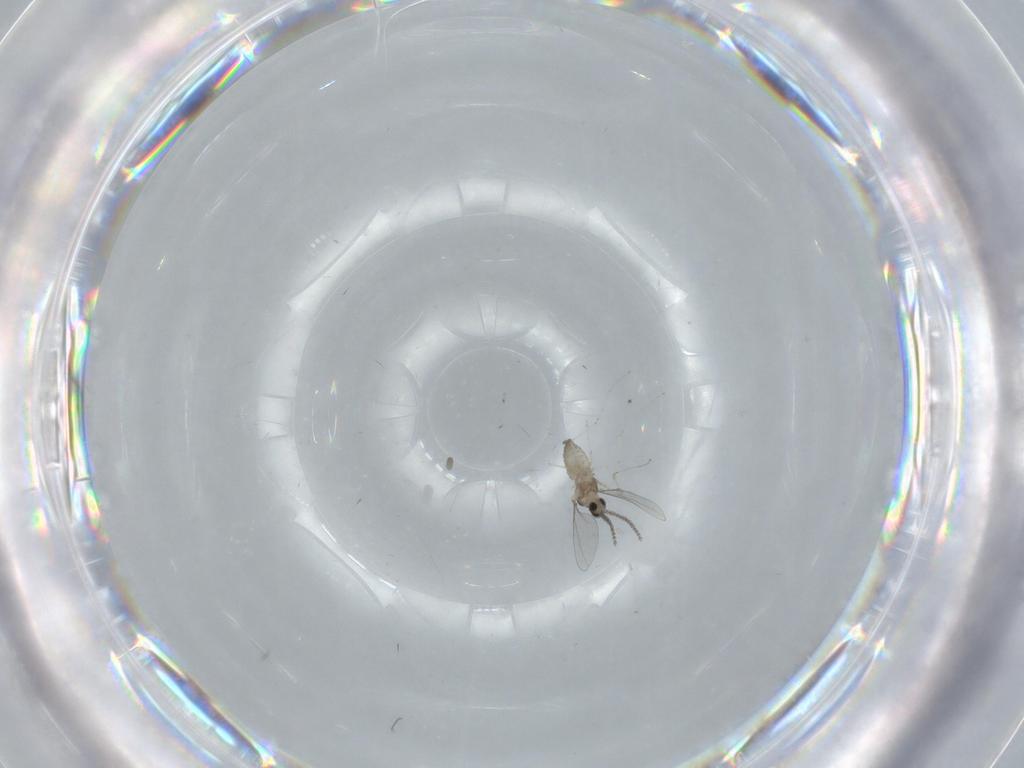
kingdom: Animalia
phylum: Arthropoda
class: Insecta
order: Diptera
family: Cecidomyiidae
